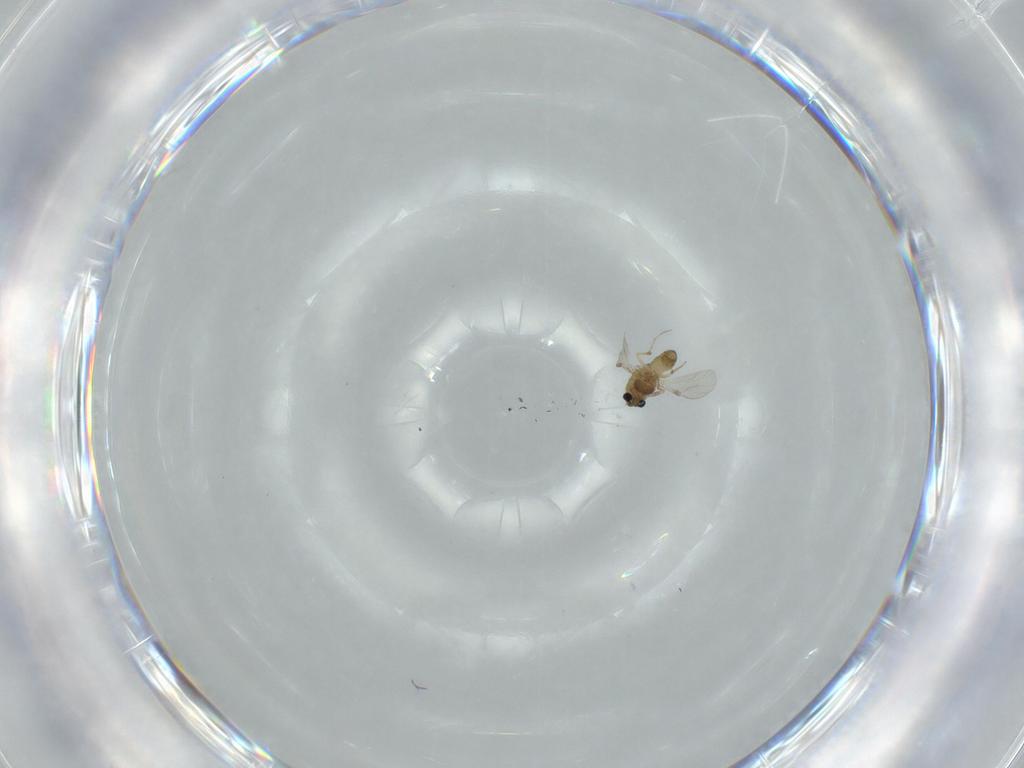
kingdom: Animalia
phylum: Arthropoda
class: Insecta
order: Diptera
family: Chironomidae
